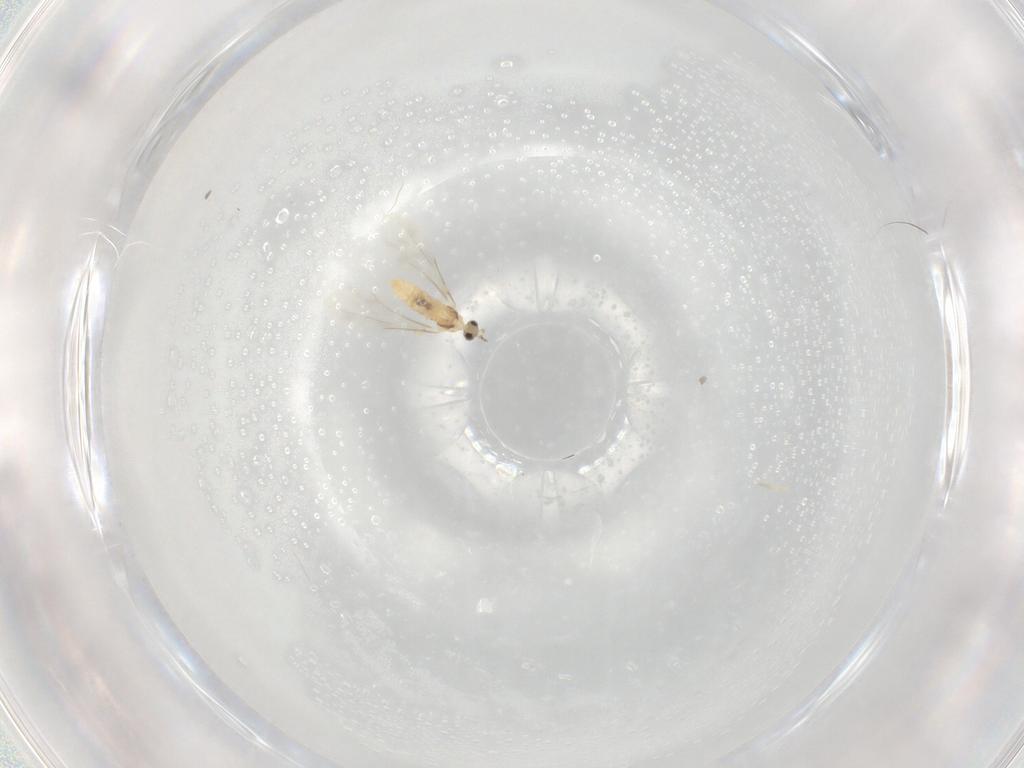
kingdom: Animalia
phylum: Arthropoda
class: Insecta
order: Diptera
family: Cecidomyiidae
